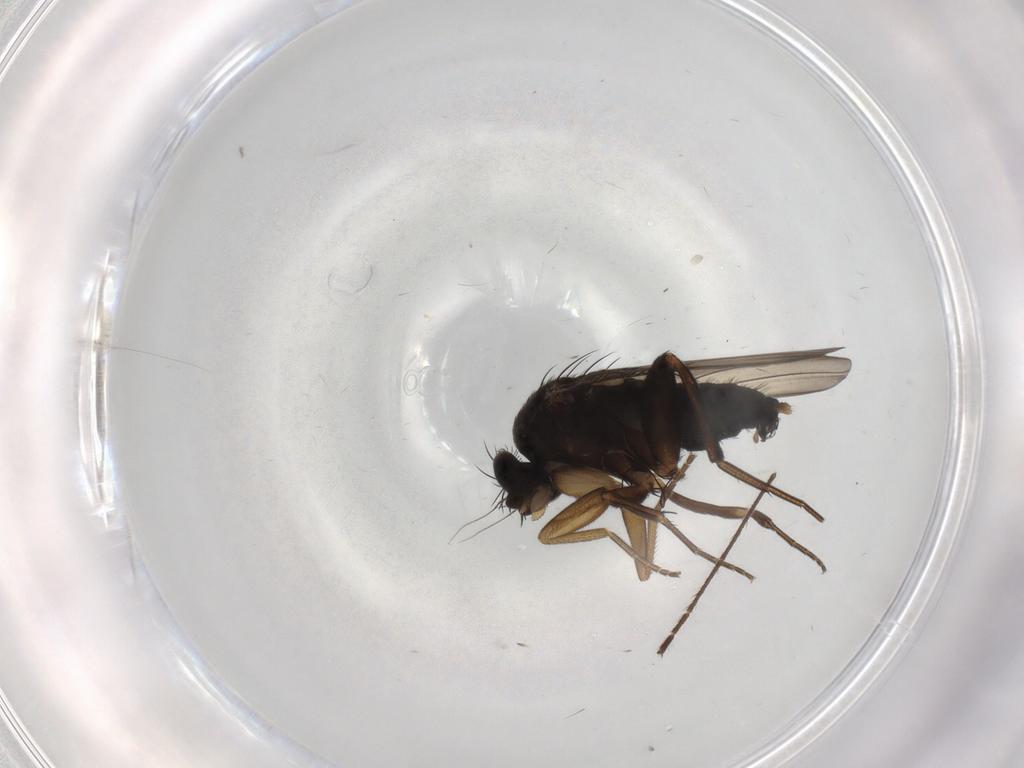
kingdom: Animalia
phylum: Arthropoda
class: Insecta
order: Diptera
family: Phoridae
